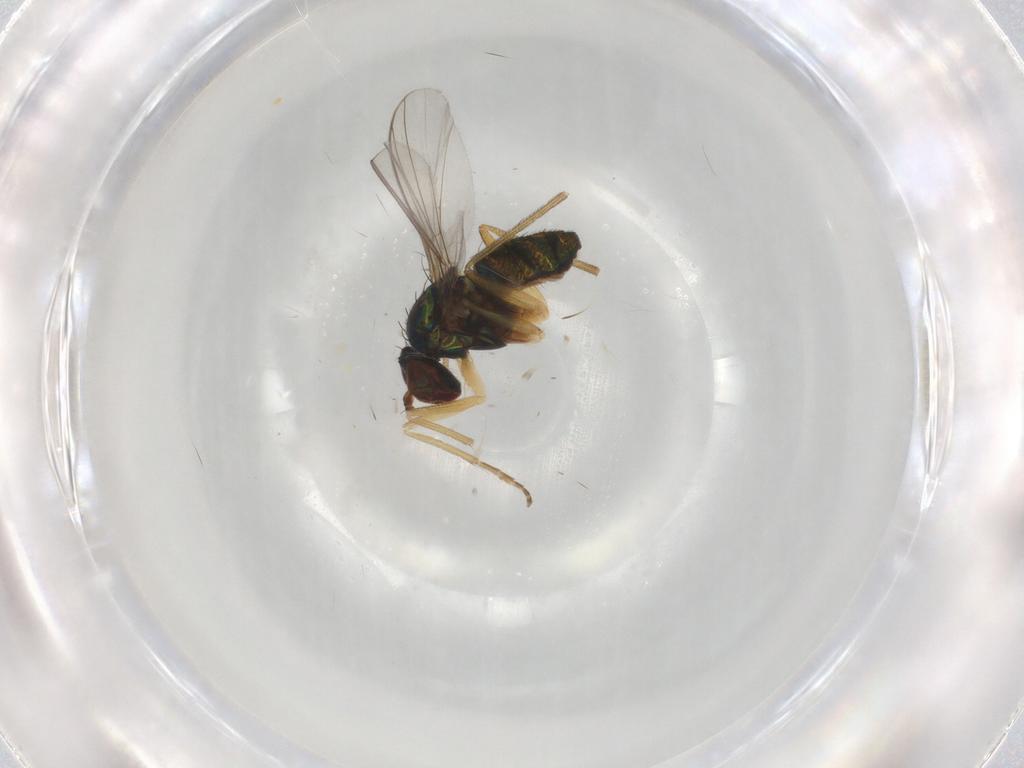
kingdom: Animalia
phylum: Arthropoda
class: Insecta
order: Diptera
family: Dolichopodidae
